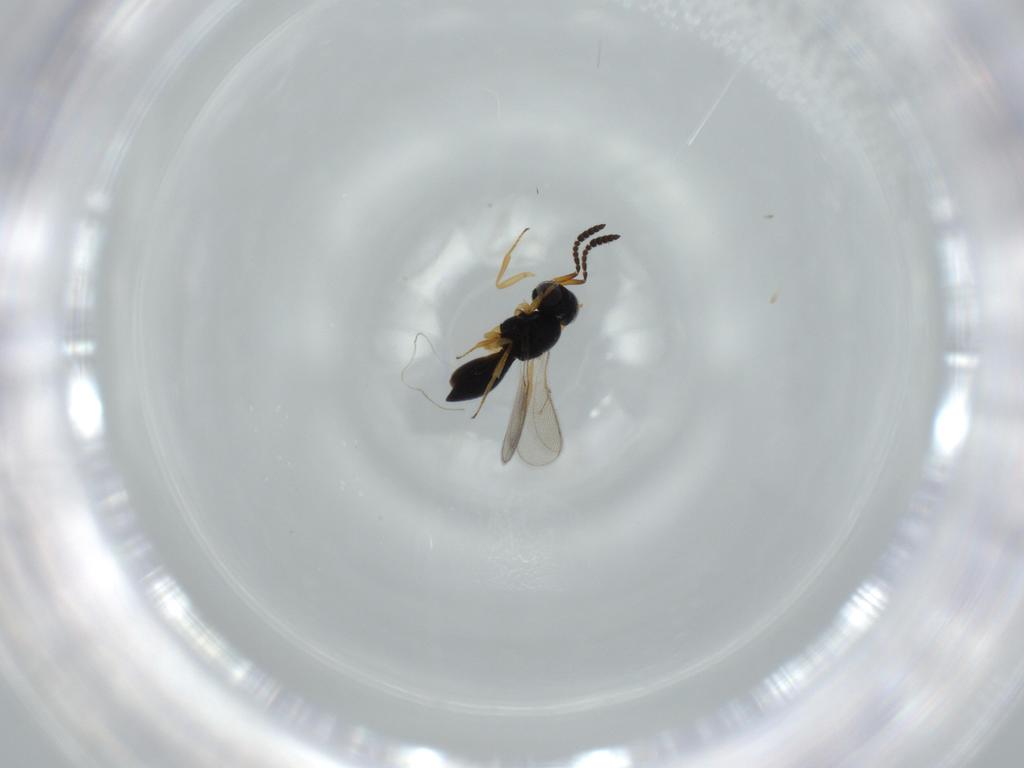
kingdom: Animalia
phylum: Arthropoda
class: Insecta
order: Hymenoptera
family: Scelionidae
